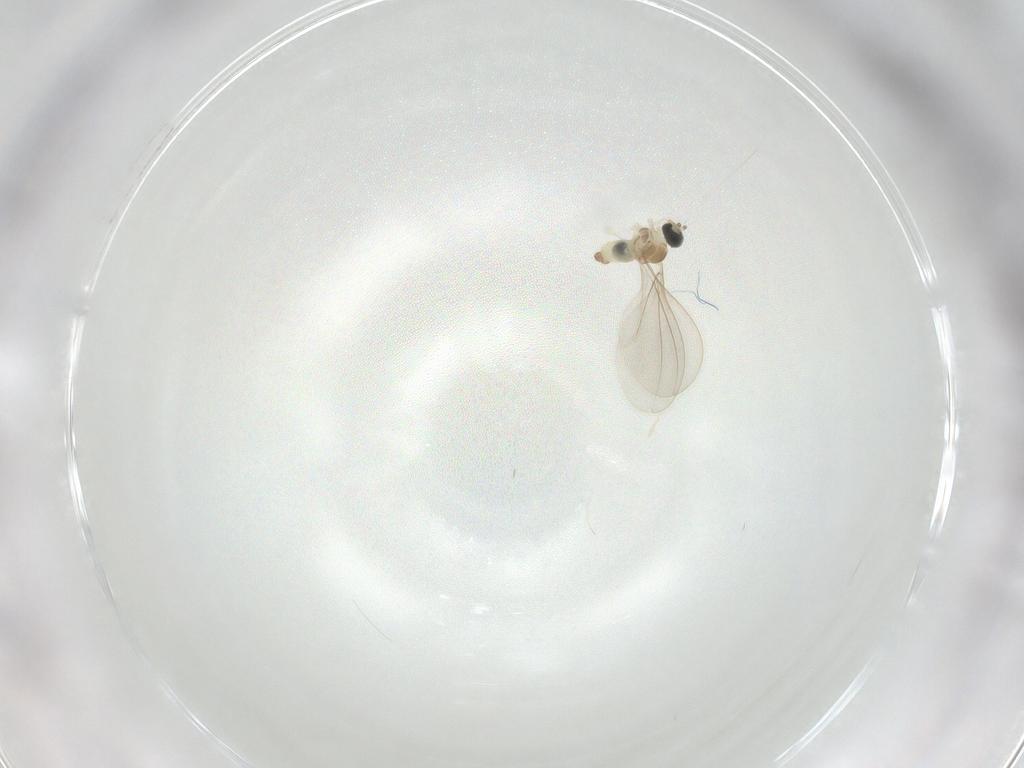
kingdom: Animalia
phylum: Arthropoda
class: Insecta
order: Diptera
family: Cecidomyiidae
